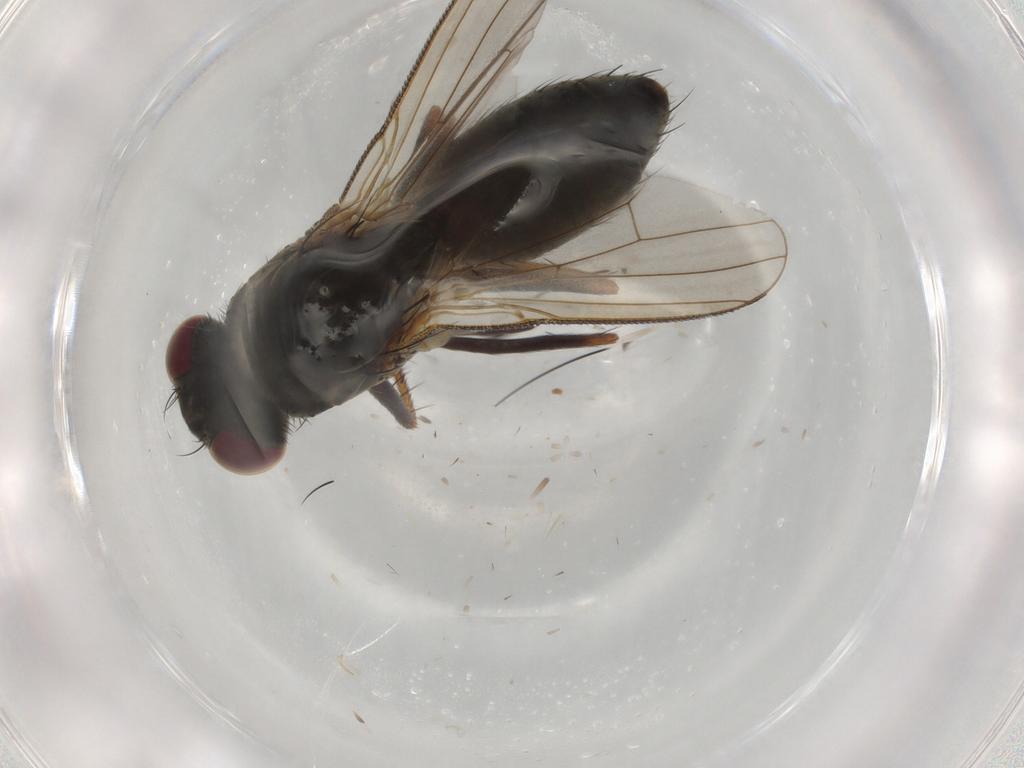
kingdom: Animalia
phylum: Arthropoda
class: Insecta
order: Diptera
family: Muscidae
